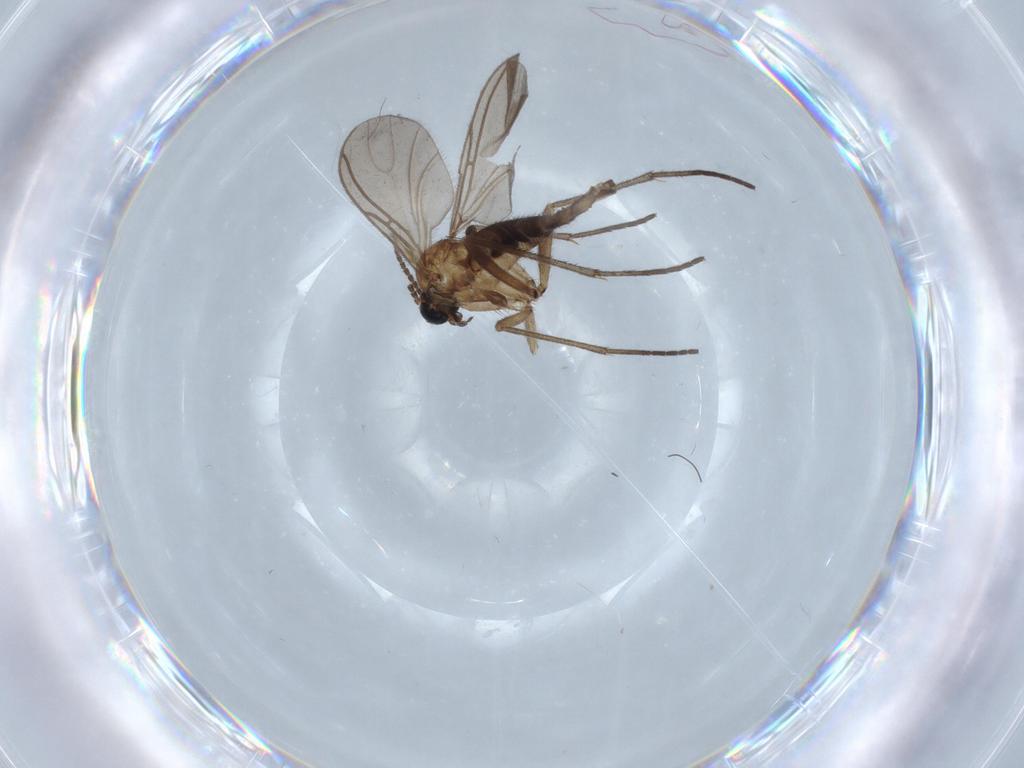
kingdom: Animalia
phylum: Arthropoda
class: Insecta
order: Diptera
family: Sciaridae
